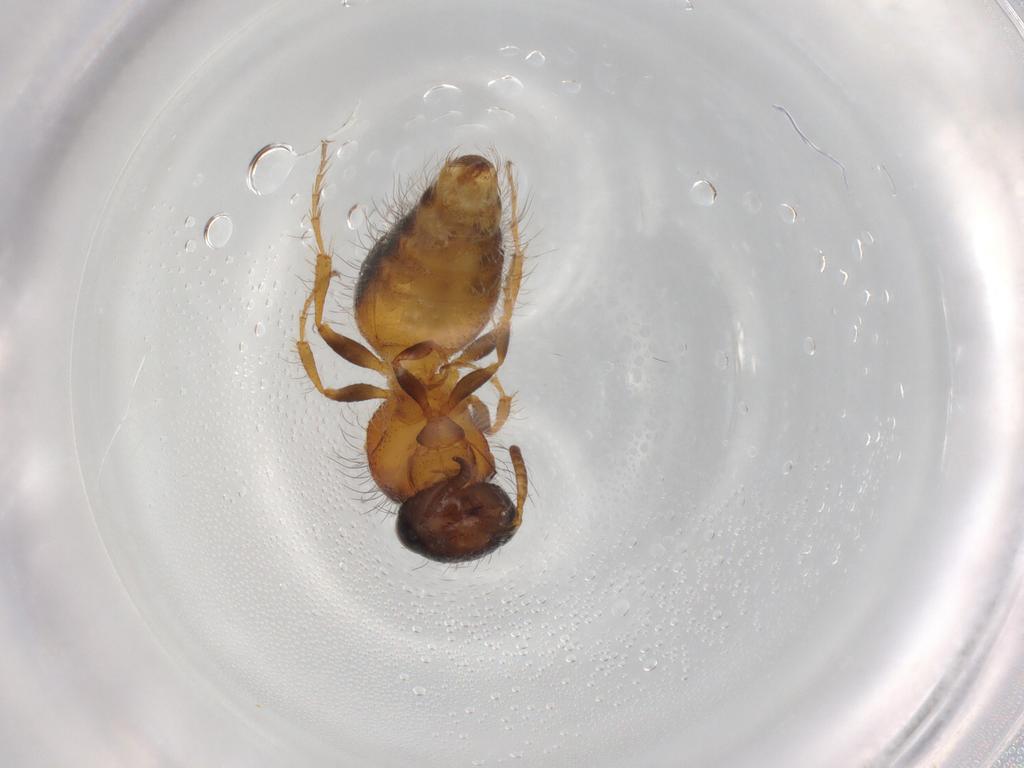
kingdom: Animalia
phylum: Arthropoda
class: Insecta
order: Hymenoptera
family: Mutillidae
